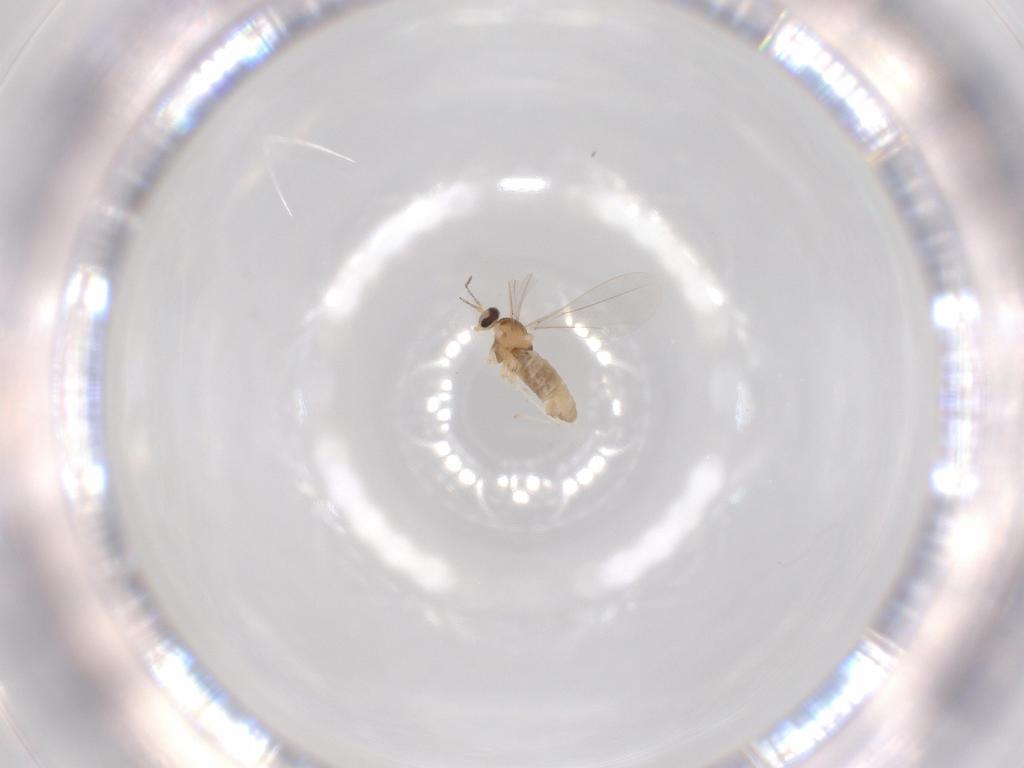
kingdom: Animalia
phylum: Arthropoda
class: Insecta
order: Diptera
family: Cecidomyiidae
